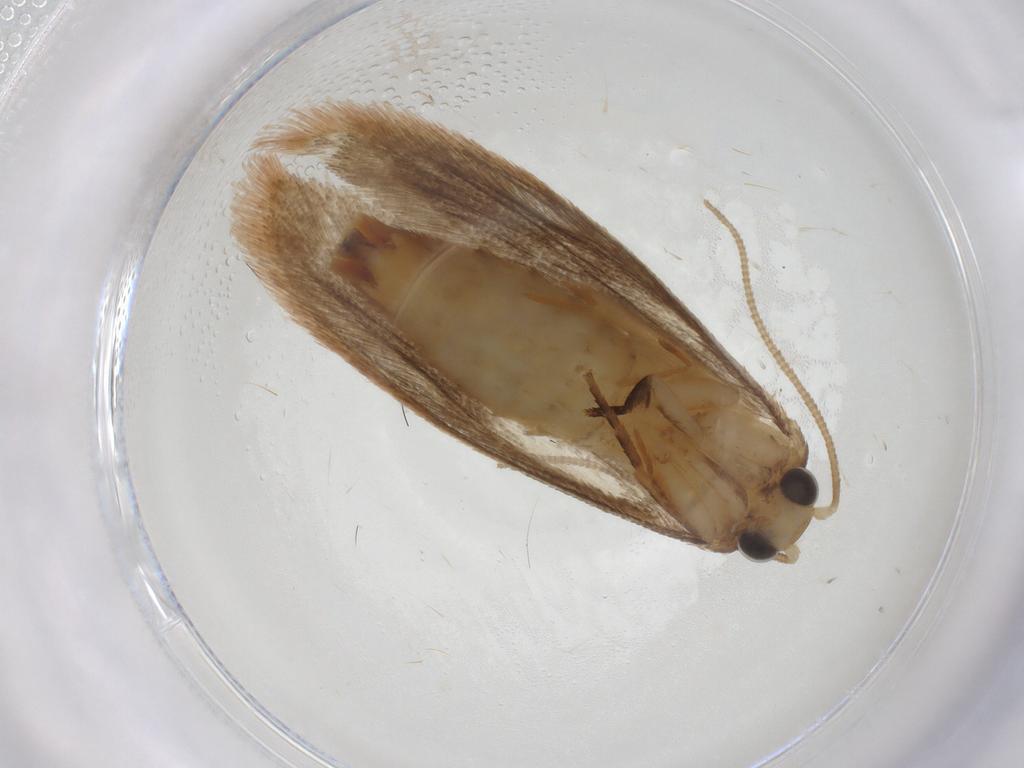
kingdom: Animalia
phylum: Arthropoda
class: Insecta
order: Lepidoptera
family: Tineidae
